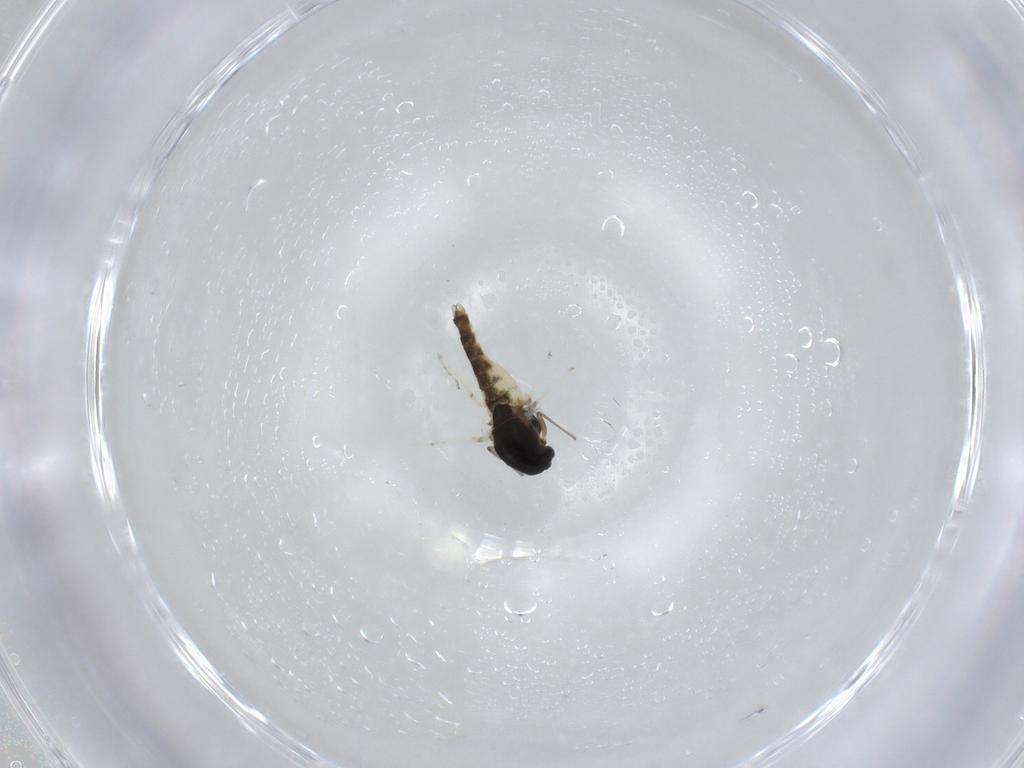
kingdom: Animalia
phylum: Arthropoda
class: Insecta
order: Diptera
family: Chironomidae
